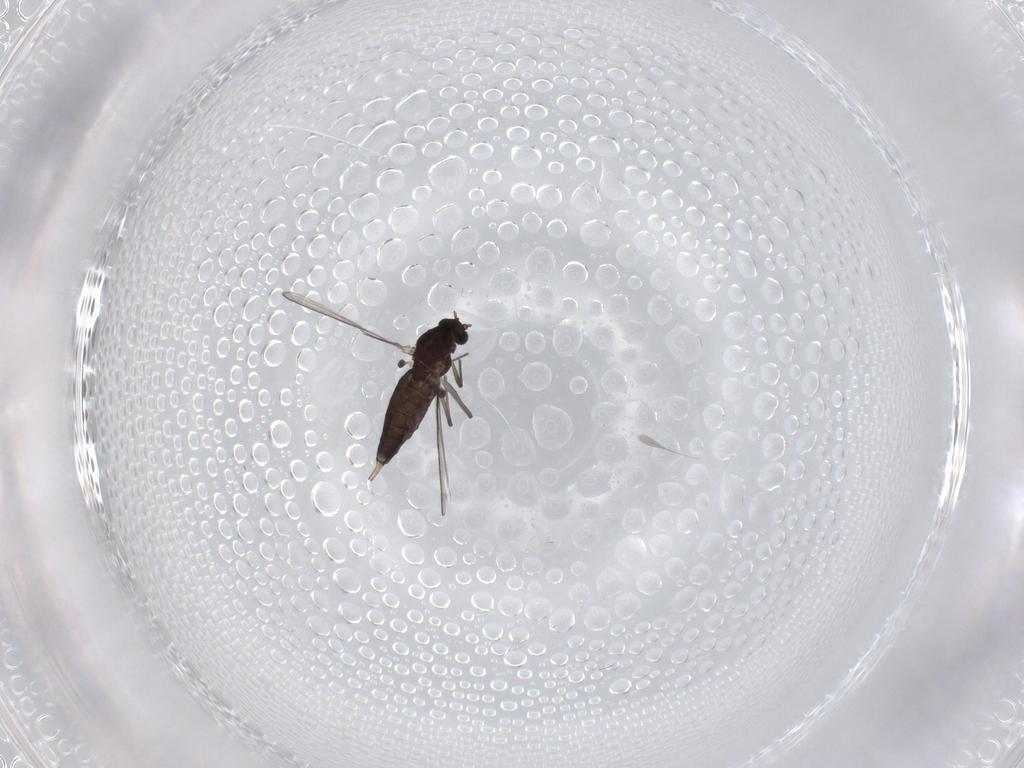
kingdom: Animalia
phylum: Arthropoda
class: Insecta
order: Diptera
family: Chironomidae
